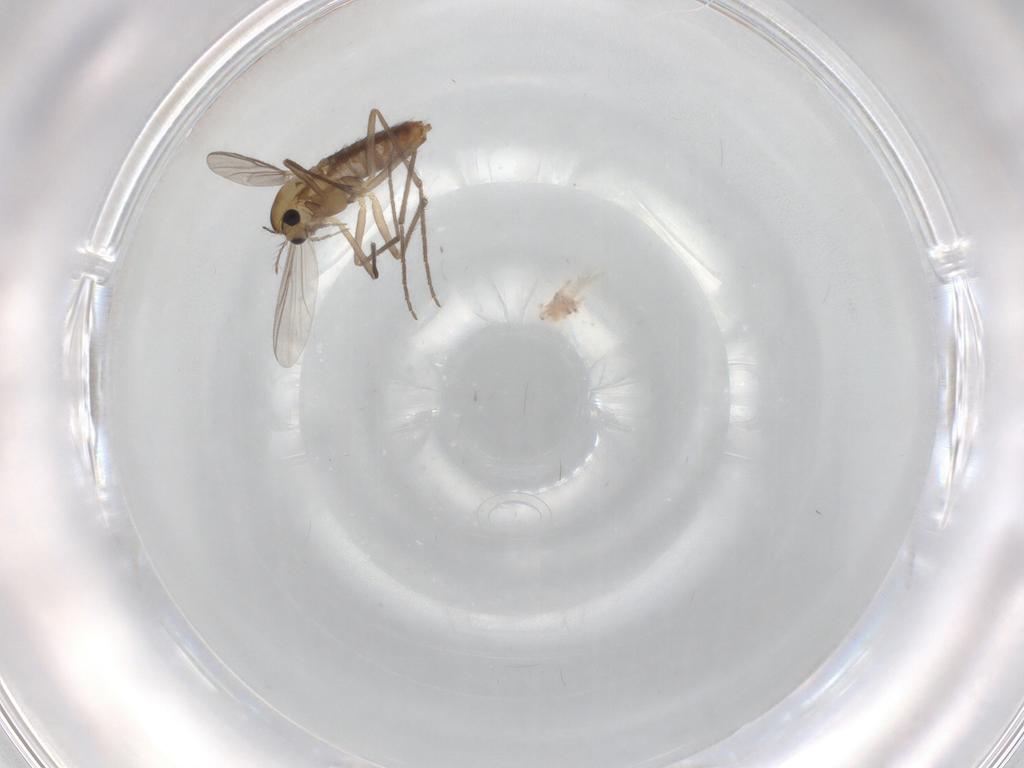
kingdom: Animalia
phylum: Arthropoda
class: Insecta
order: Diptera
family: Chironomidae
